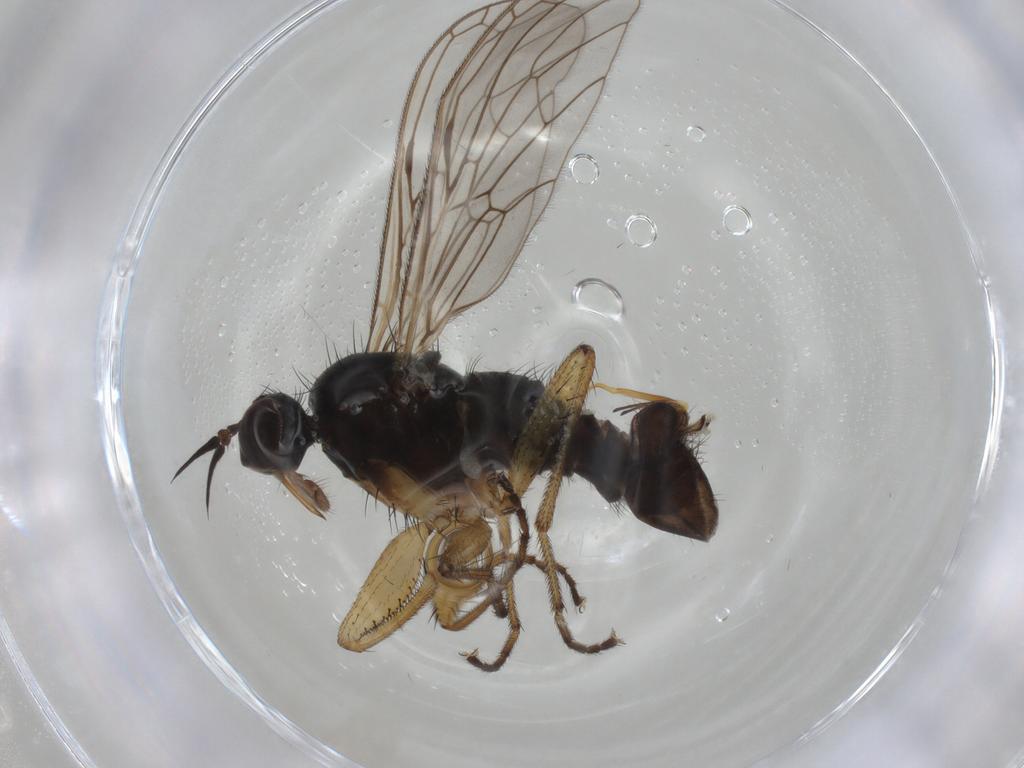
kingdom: Animalia
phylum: Arthropoda
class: Insecta
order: Diptera
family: Empididae
